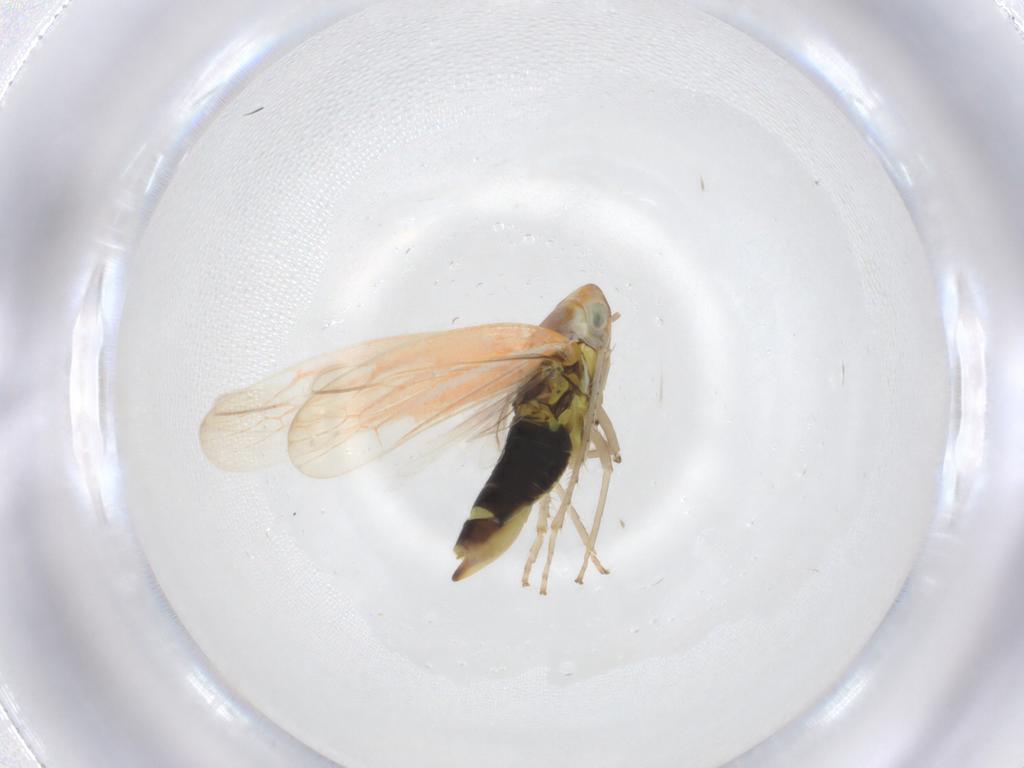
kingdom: Animalia
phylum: Arthropoda
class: Insecta
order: Hemiptera
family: Cicadellidae
